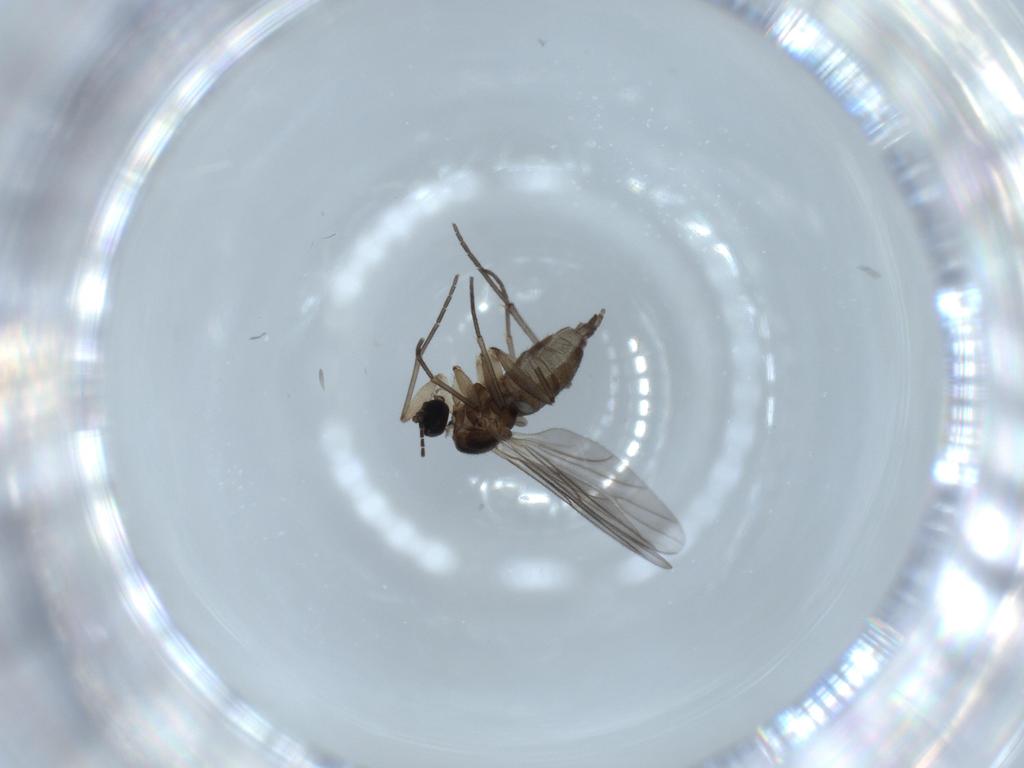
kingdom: Animalia
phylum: Arthropoda
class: Insecta
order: Diptera
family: Sciaridae
